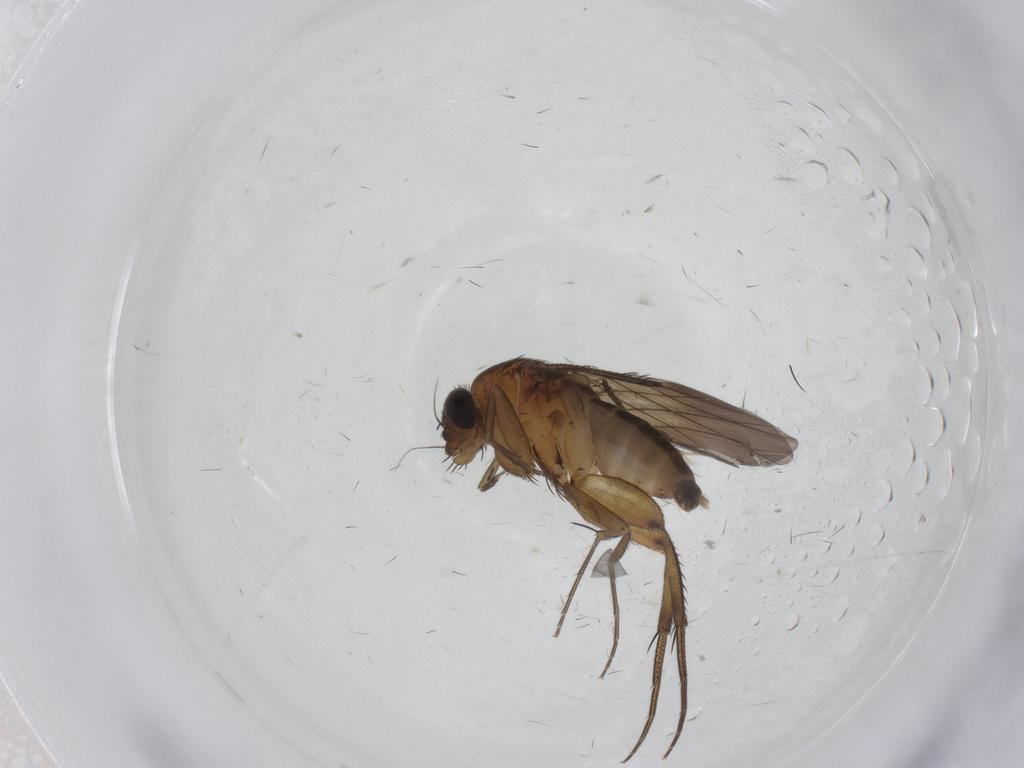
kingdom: Animalia
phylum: Arthropoda
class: Insecta
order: Diptera
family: Phoridae
